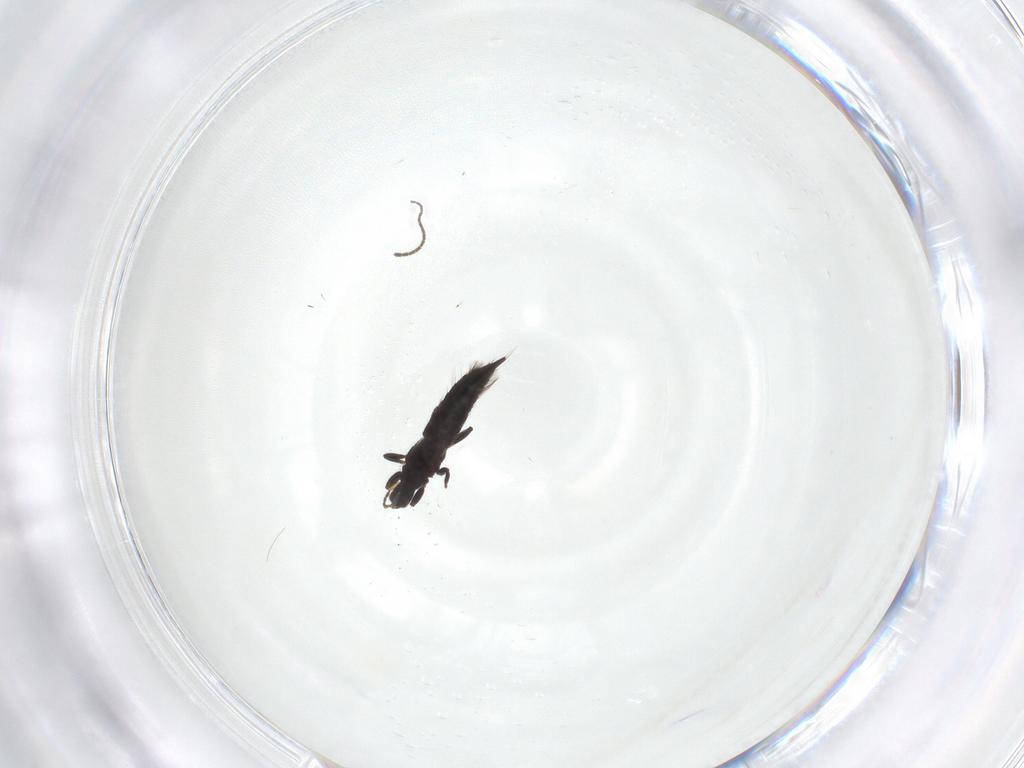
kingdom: Animalia
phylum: Arthropoda
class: Insecta
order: Thysanoptera
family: Phlaeothripidae
